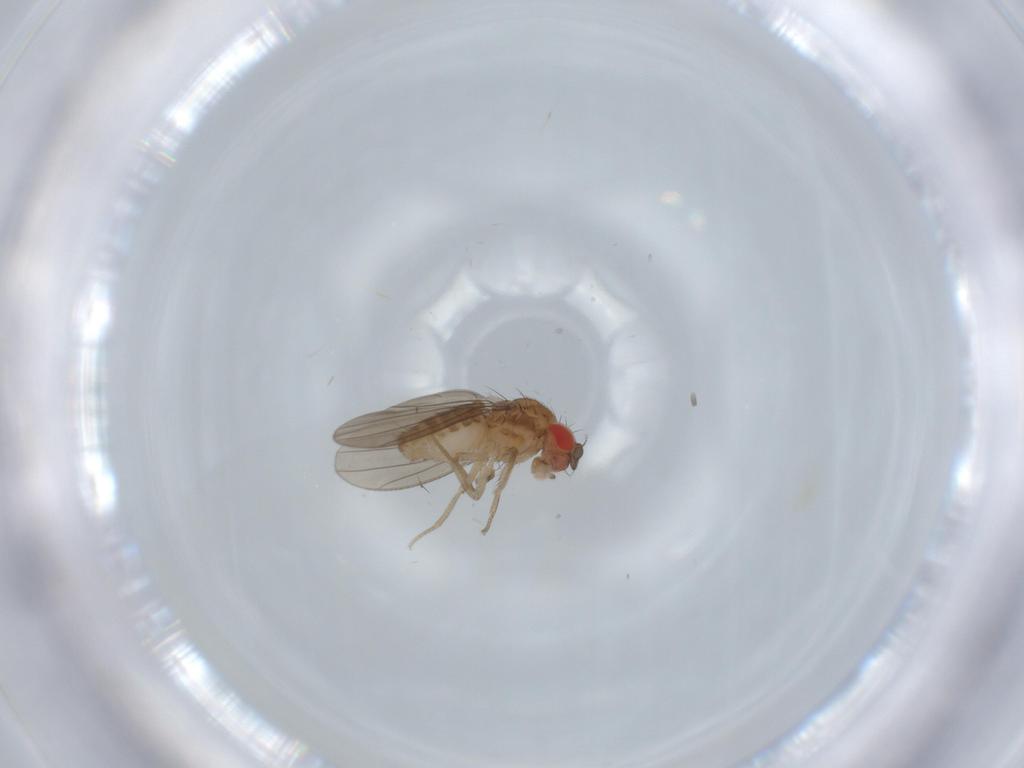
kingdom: Animalia
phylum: Arthropoda
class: Insecta
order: Diptera
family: Drosophilidae
